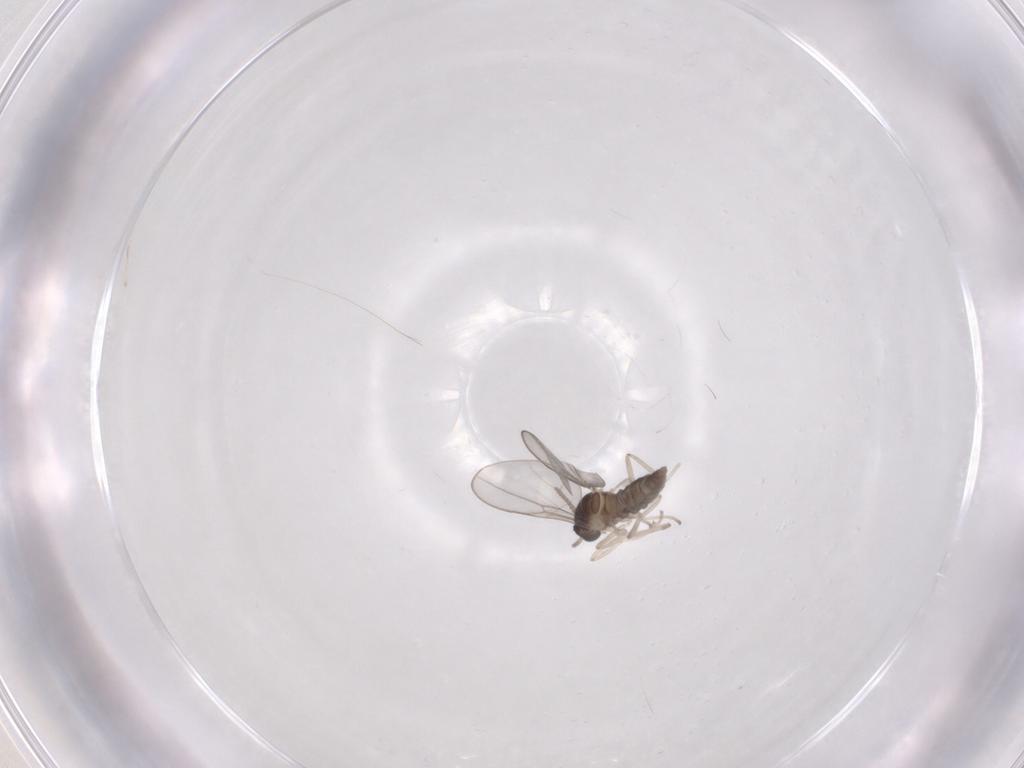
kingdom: Animalia
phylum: Arthropoda
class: Insecta
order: Diptera
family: Cecidomyiidae
